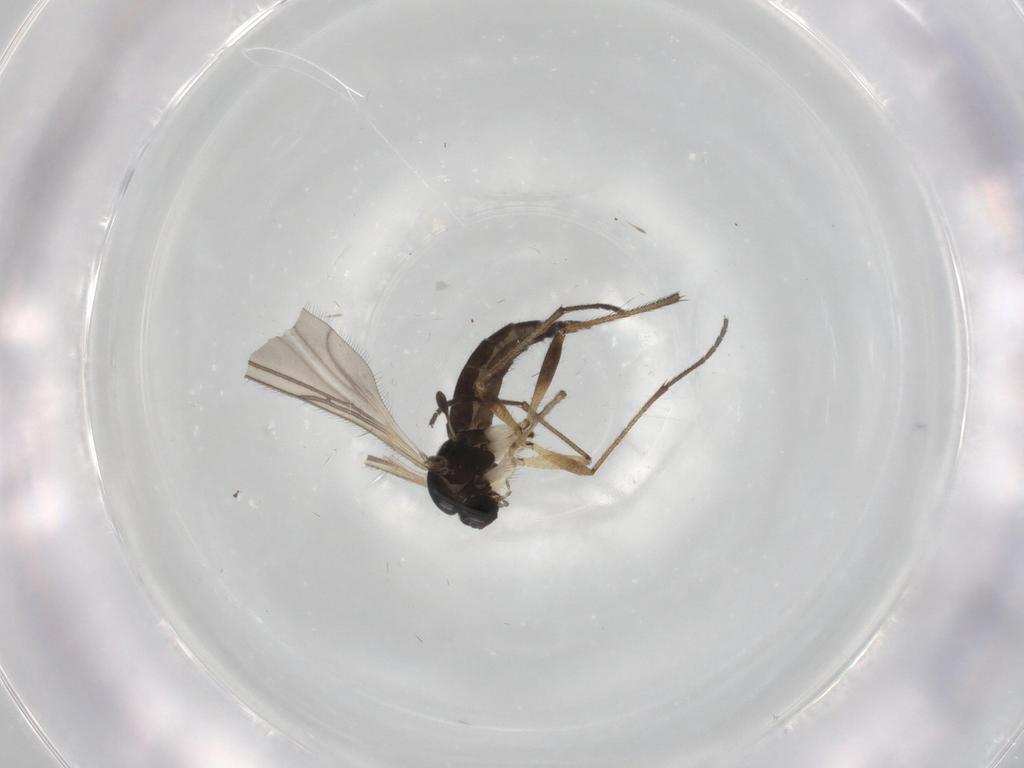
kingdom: Animalia
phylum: Arthropoda
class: Insecta
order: Diptera
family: Sciaridae
